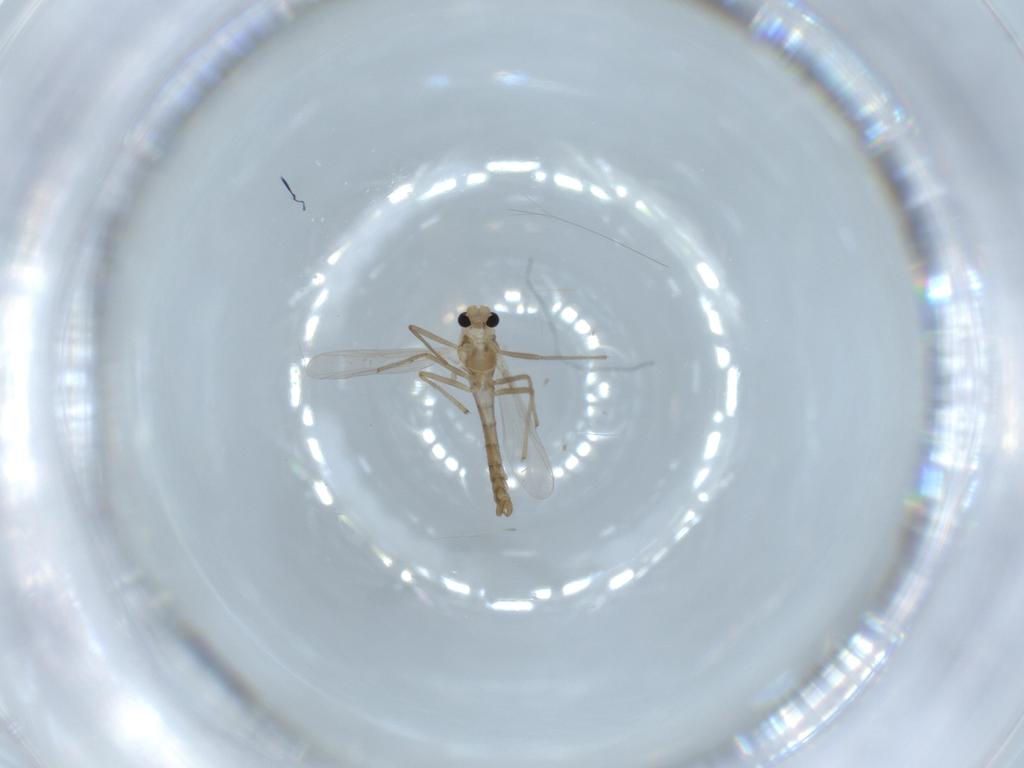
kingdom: Animalia
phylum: Arthropoda
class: Insecta
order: Diptera
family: Chironomidae
